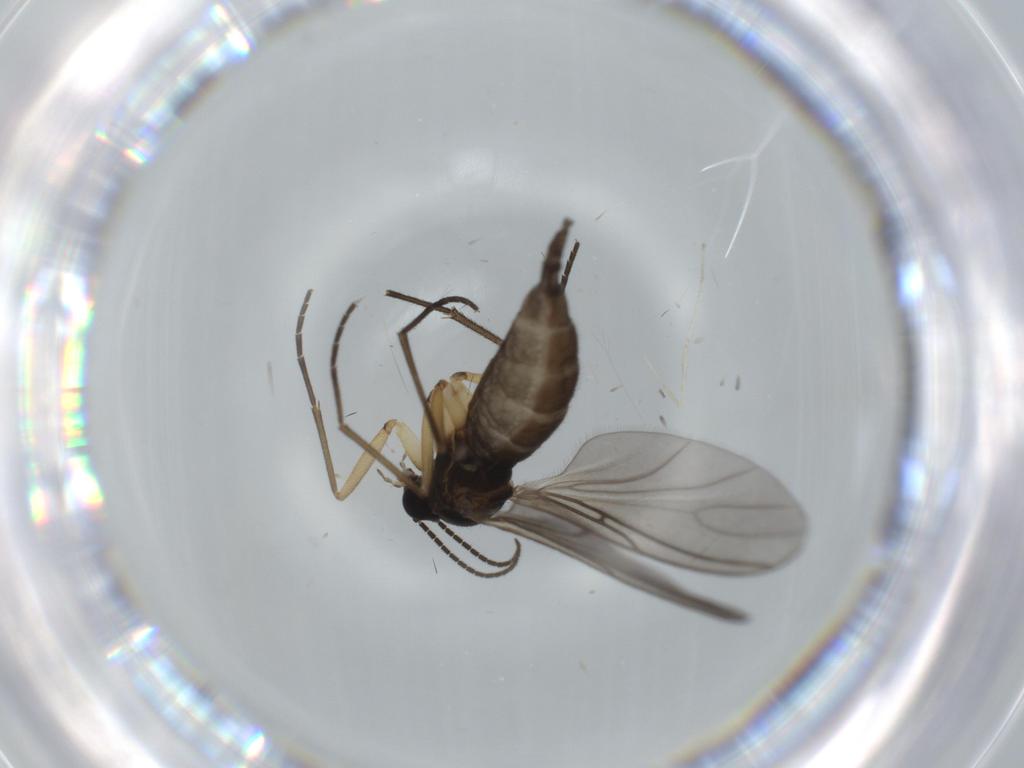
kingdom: Animalia
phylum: Arthropoda
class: Insecta
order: Diptera
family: Sciaridae
